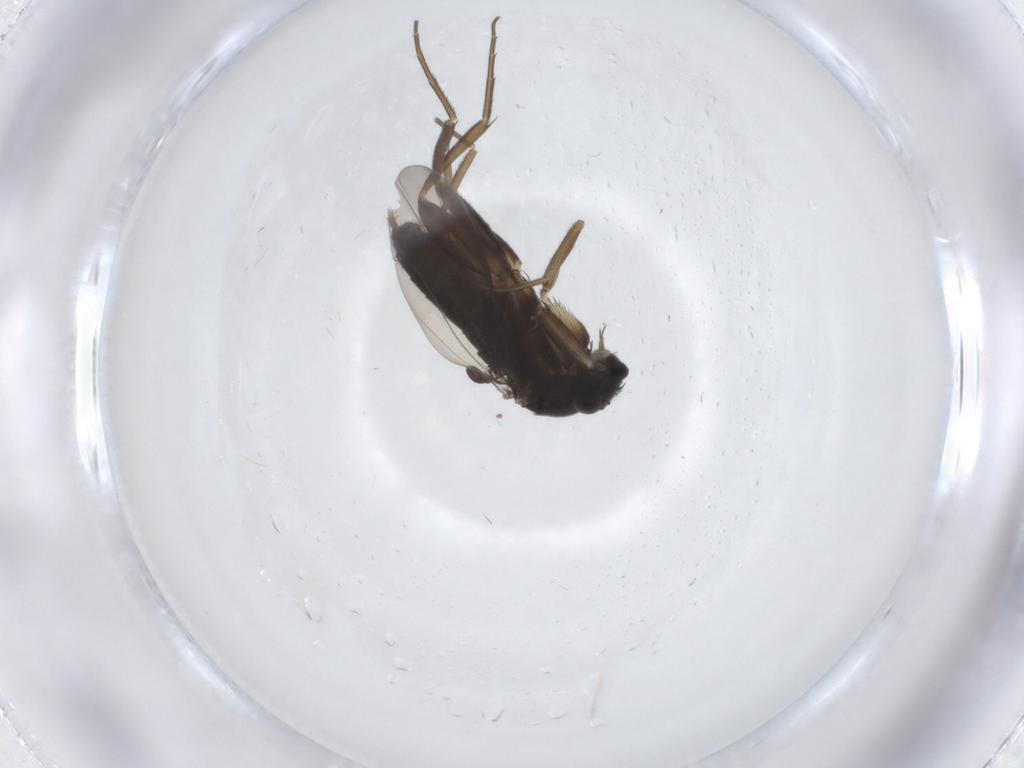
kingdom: Animalia
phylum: Arthropoda
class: Insecta
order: Diptera
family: Phoridae
